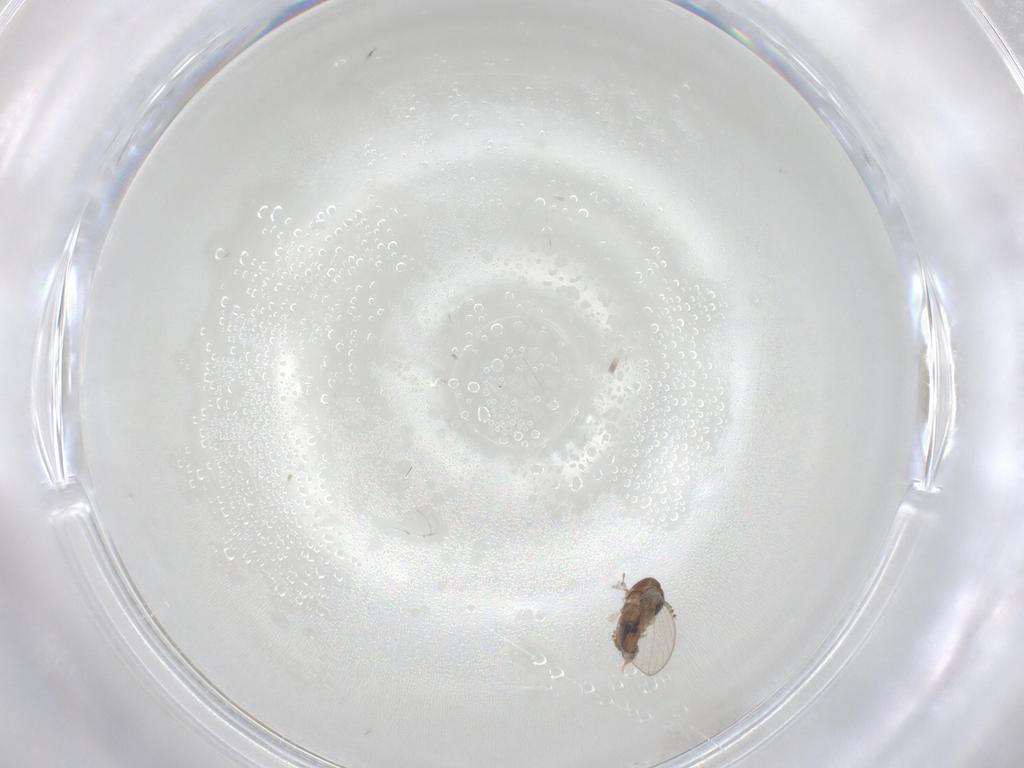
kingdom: Animalia
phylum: Arthropoda
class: Insecta
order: Diptera
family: Psychodidae
